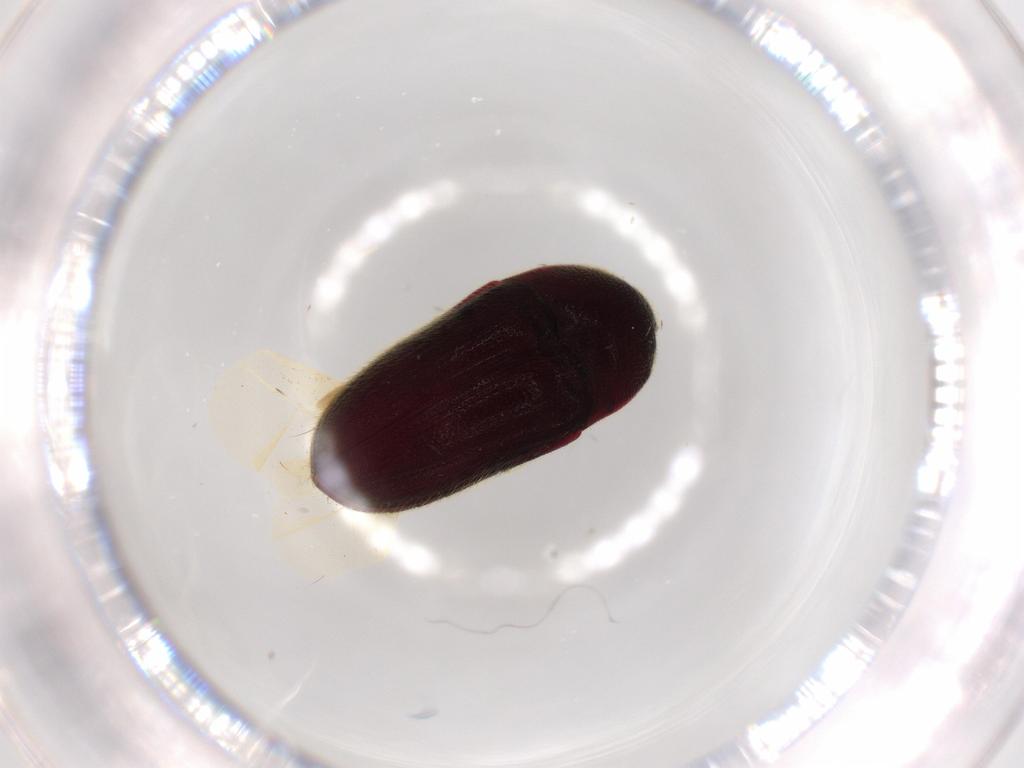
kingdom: Animalia
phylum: Arthropoda
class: Insecta
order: Coleoptera
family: Throscidae
